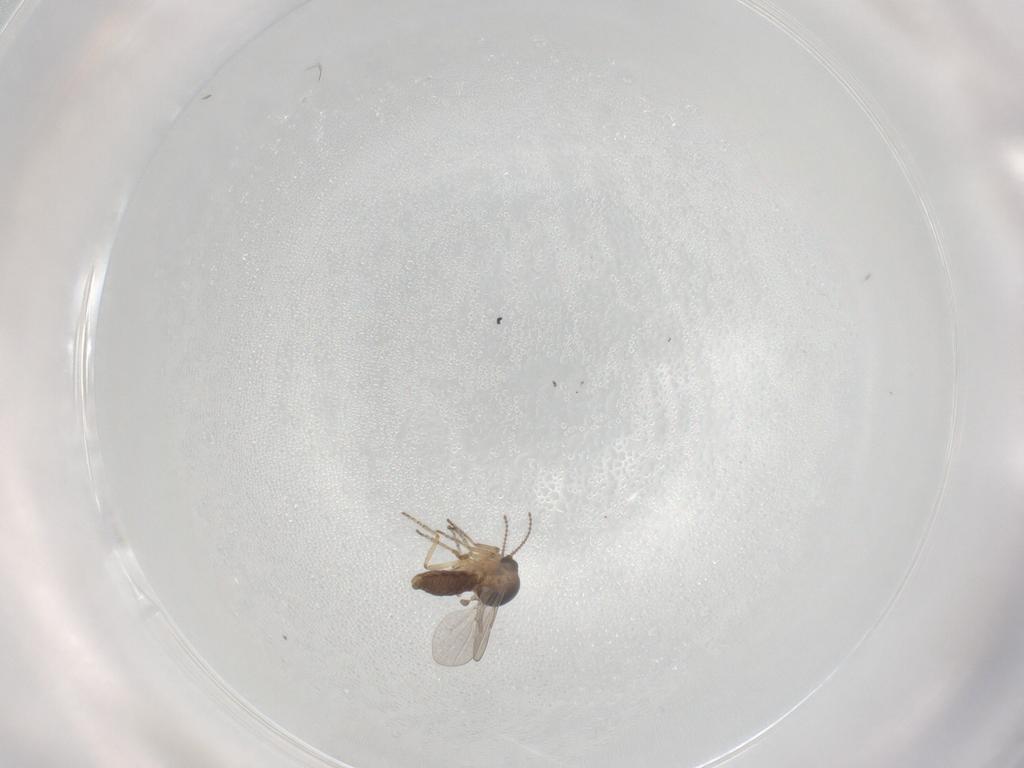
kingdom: Animalia
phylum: Arthropoda
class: Insecta
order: Diptera
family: Ceratopogonidae
